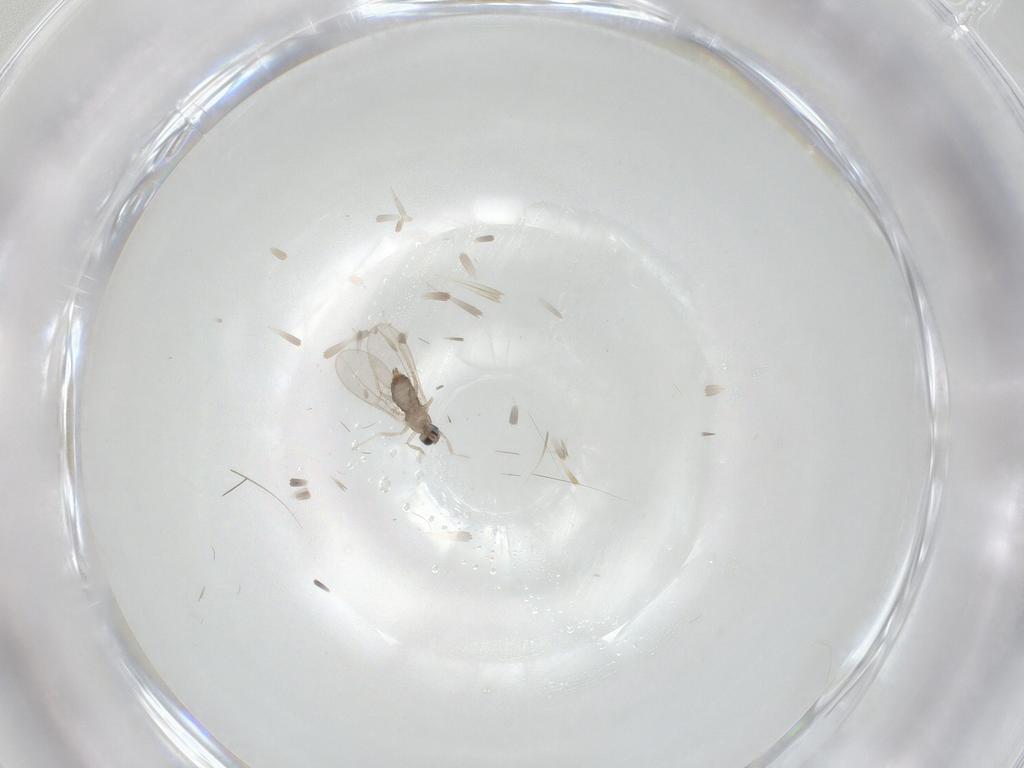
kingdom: Animalia
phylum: Arthropoda
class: Insecta
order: Diptera
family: Cecidomyiidae
